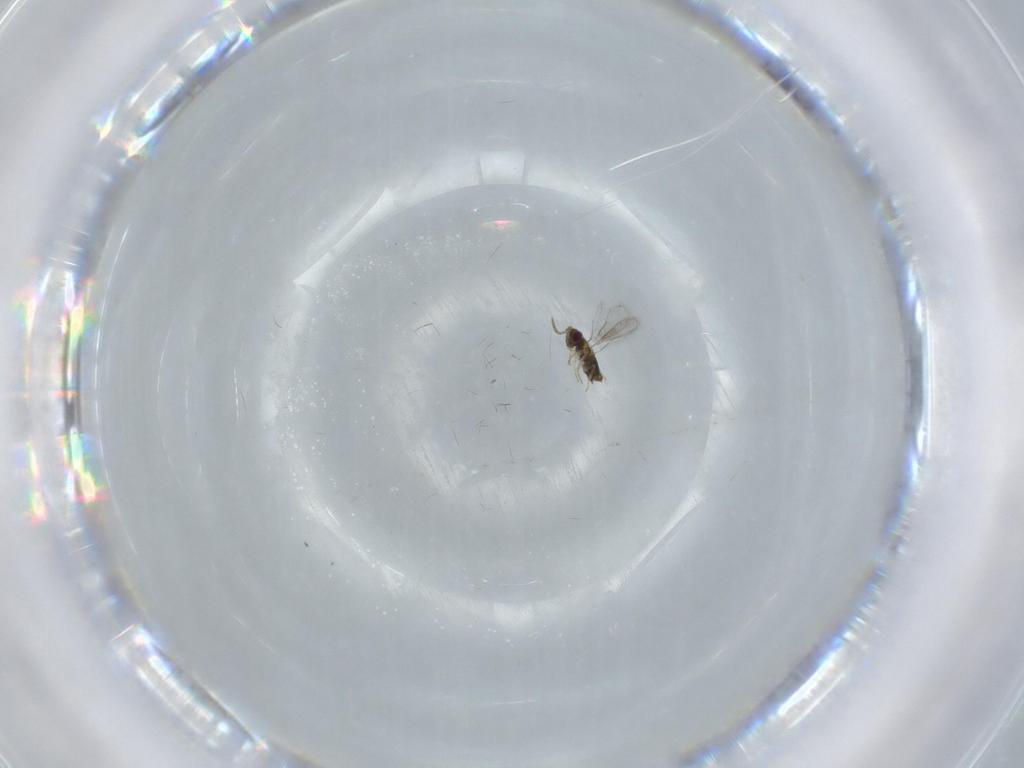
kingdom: Animalia
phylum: Arthropoda
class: Insecta
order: Hymenoptera
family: Aphelinidae
